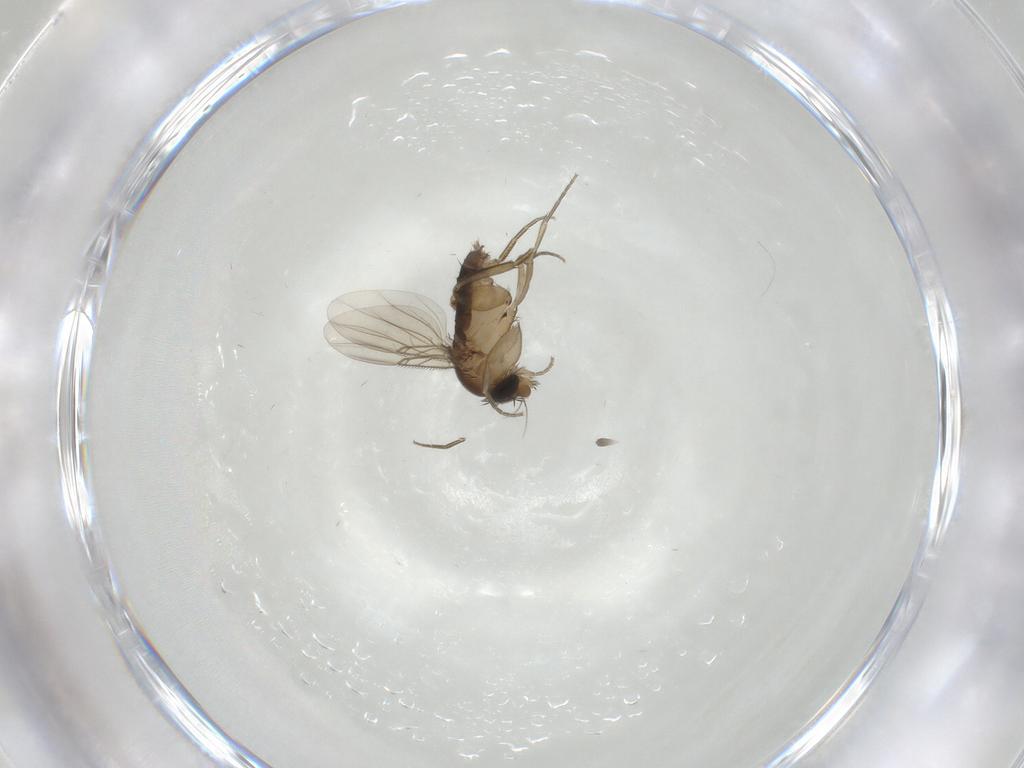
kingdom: Animalia
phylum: Arthropoda
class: Insecta
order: Diptera
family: Phoridae
